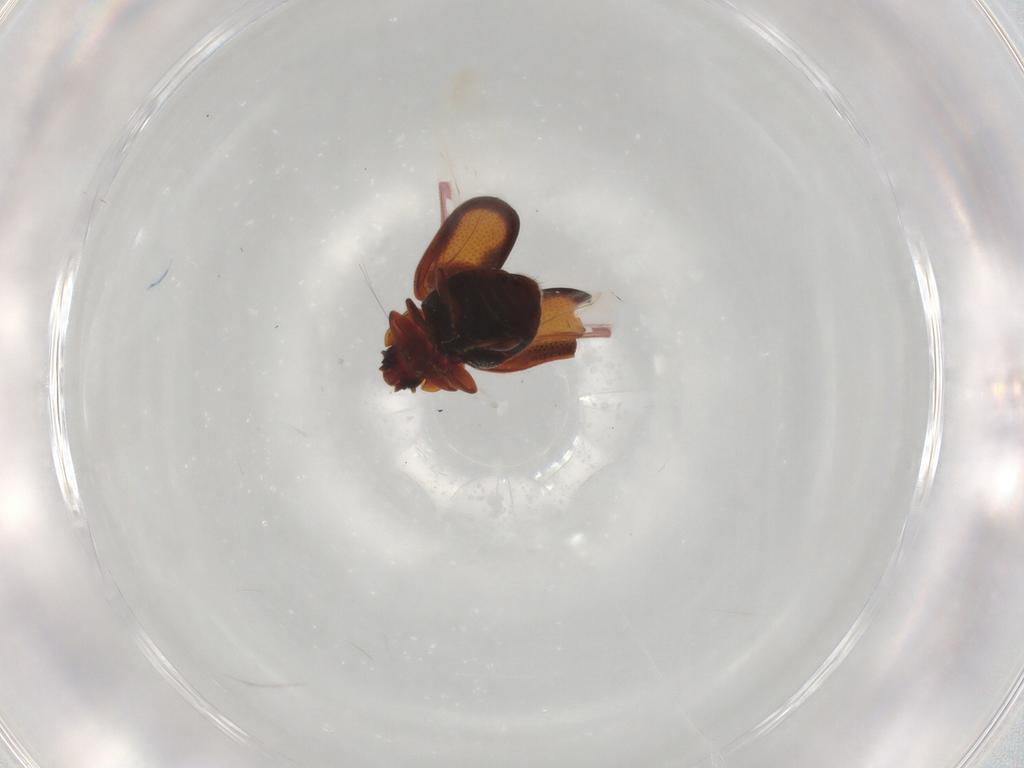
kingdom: Animalia
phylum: Arthropoda
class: Insecta
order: Coleoptera
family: Coccinellidae
